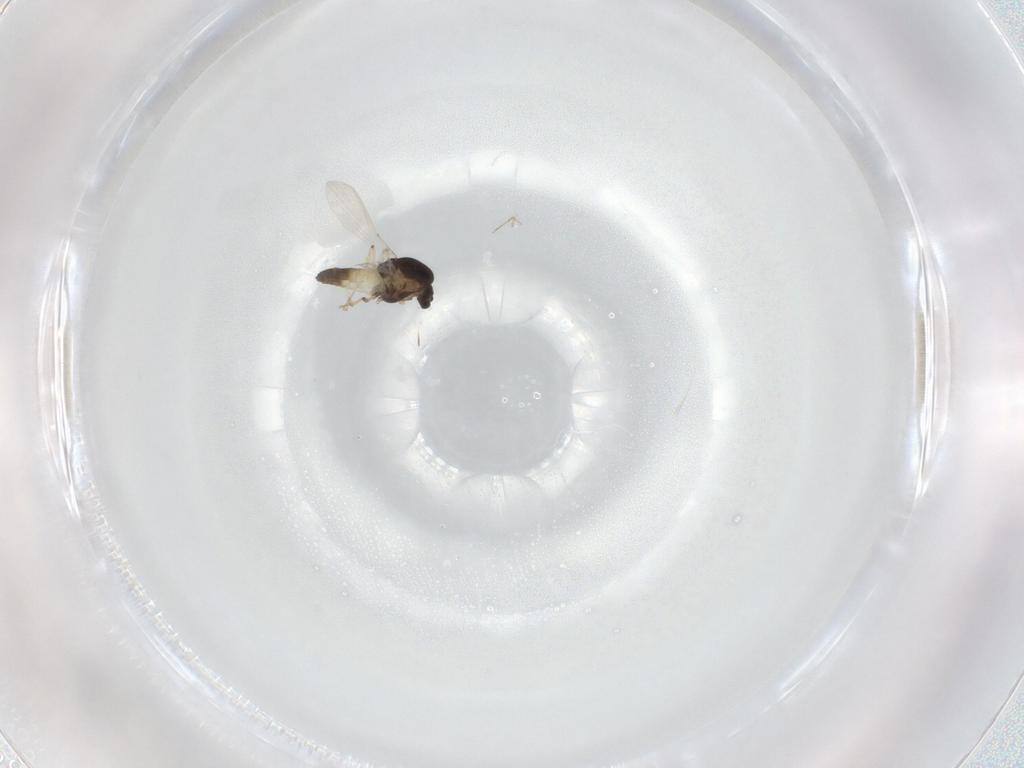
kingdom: Animalia
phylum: Arthropoda
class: Insecta
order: Diptera
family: Chironomidae
